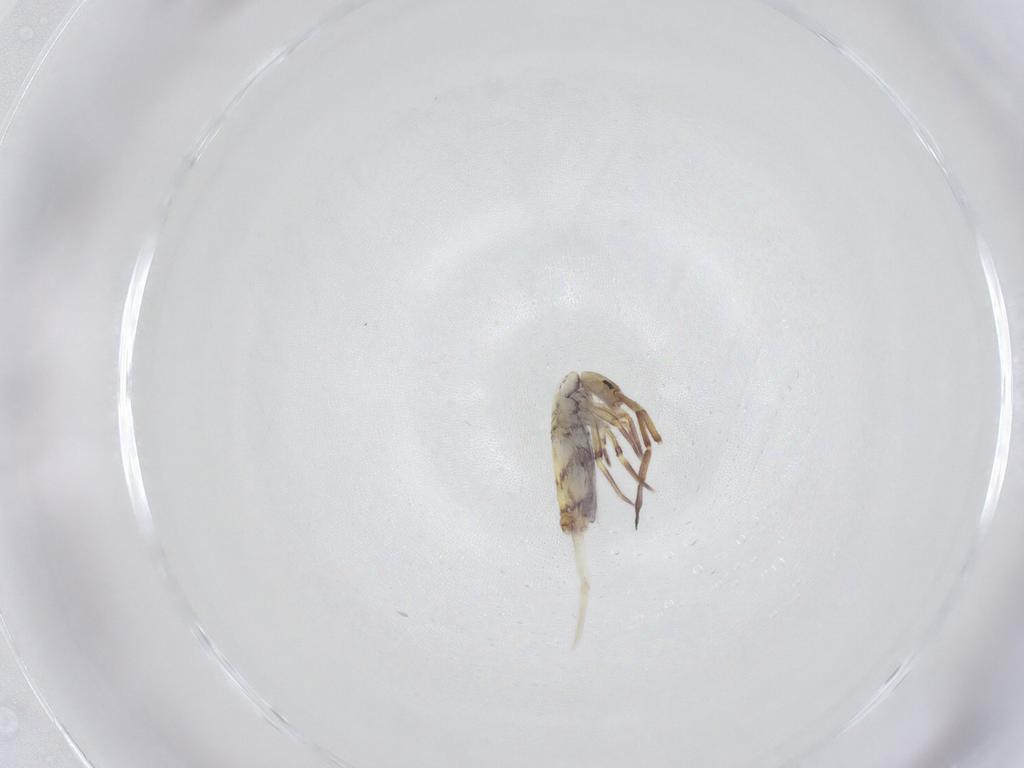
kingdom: Animalia
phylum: Arthropoda
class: Collembola
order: Entomobryomorpha
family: Entomobryidae
